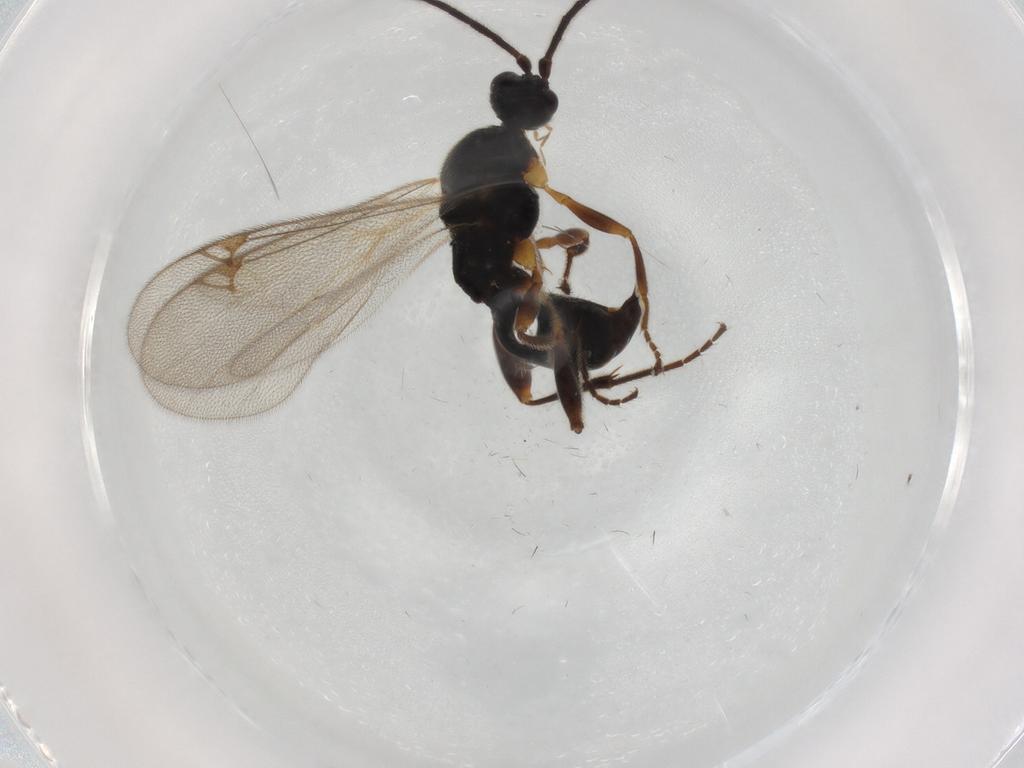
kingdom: Animalia
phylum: Arthropoda
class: Insecta
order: Hymenoptera
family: Proctotrupidae
